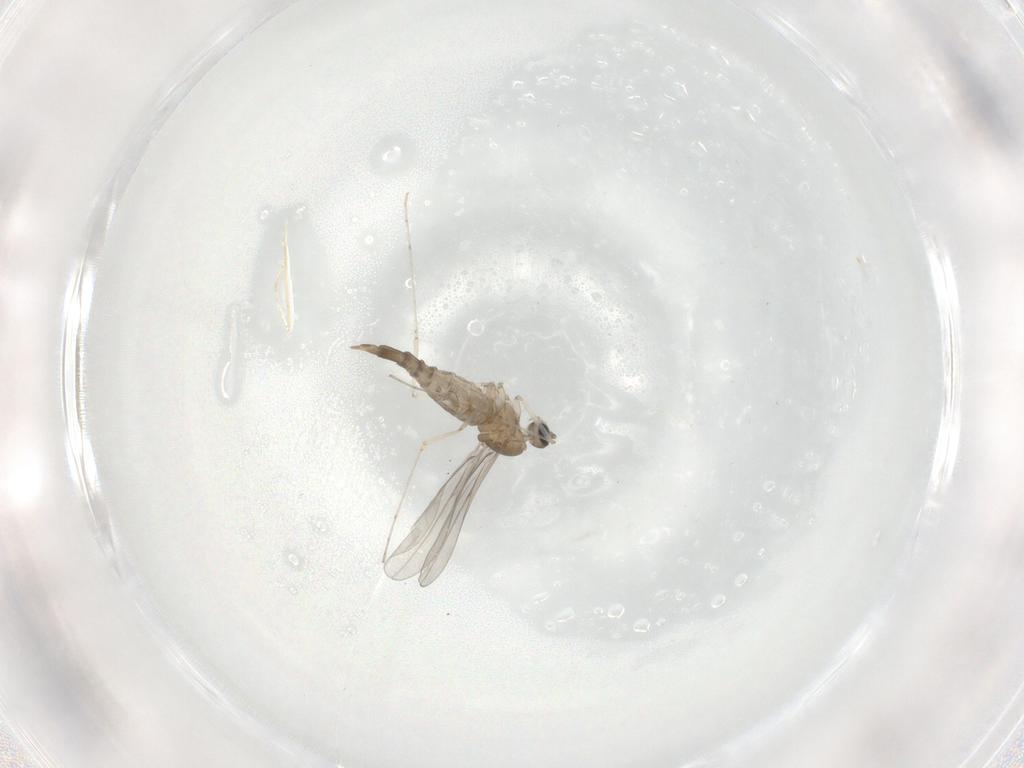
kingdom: Animalia
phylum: Arthropoda
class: Insecta
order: Diptera
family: Cecidomyiidae
